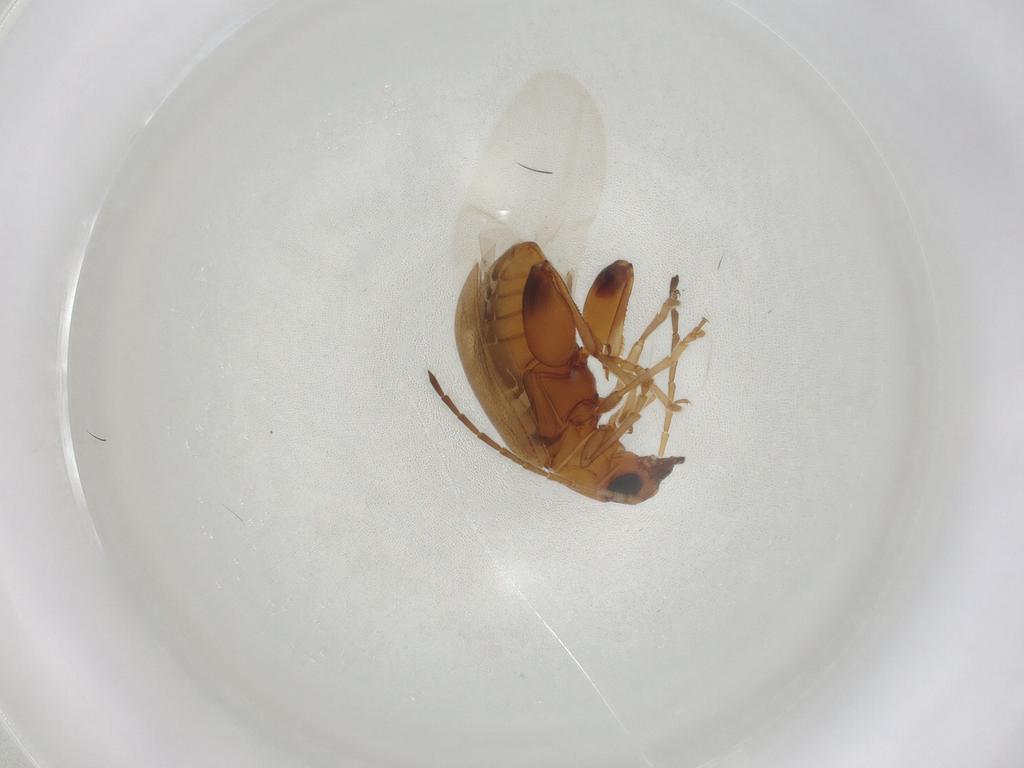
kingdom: Animalia
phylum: Arthropoda
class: Insecta
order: Coleoptera
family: Chrysomelidae
